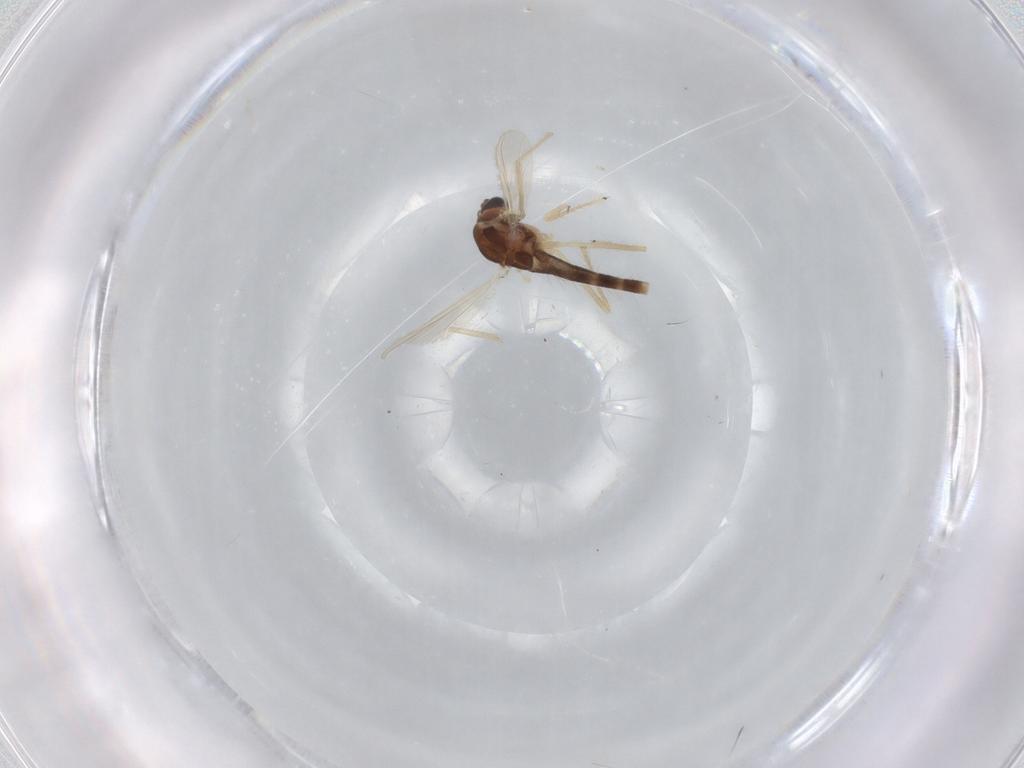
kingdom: Animalia
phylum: Arthropoda
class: Insecta
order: Diptera
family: Chironomidae
